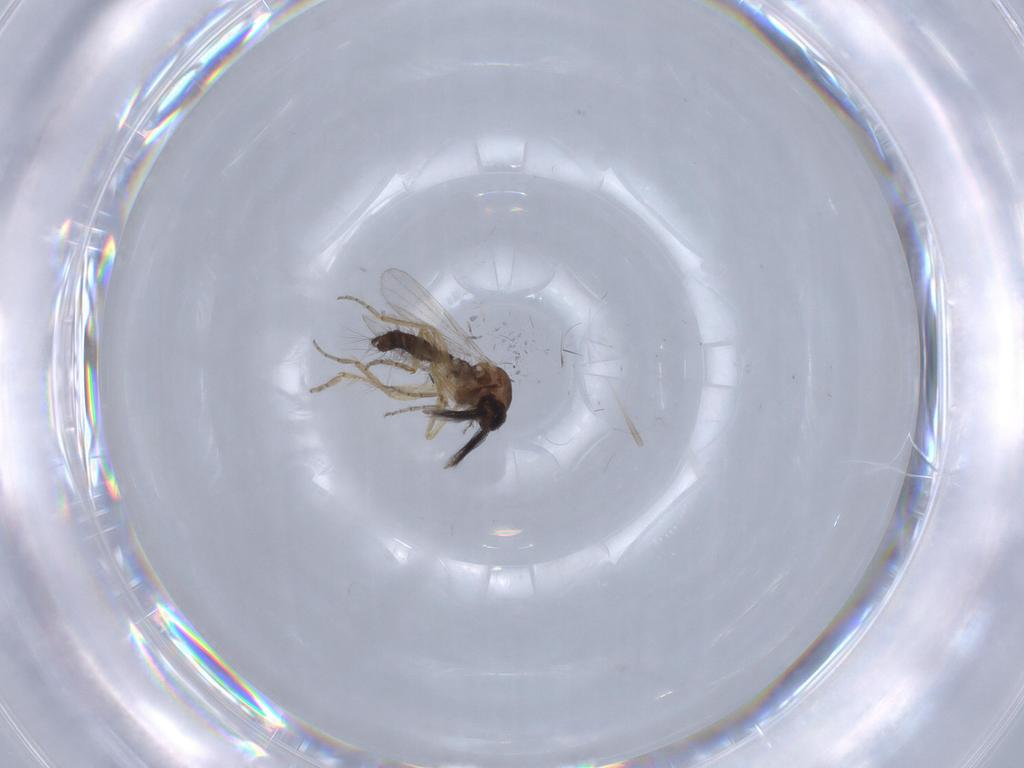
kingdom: Animalia
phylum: Arthropoda
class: Insecta
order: Diptera
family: Ceratopogonidae
